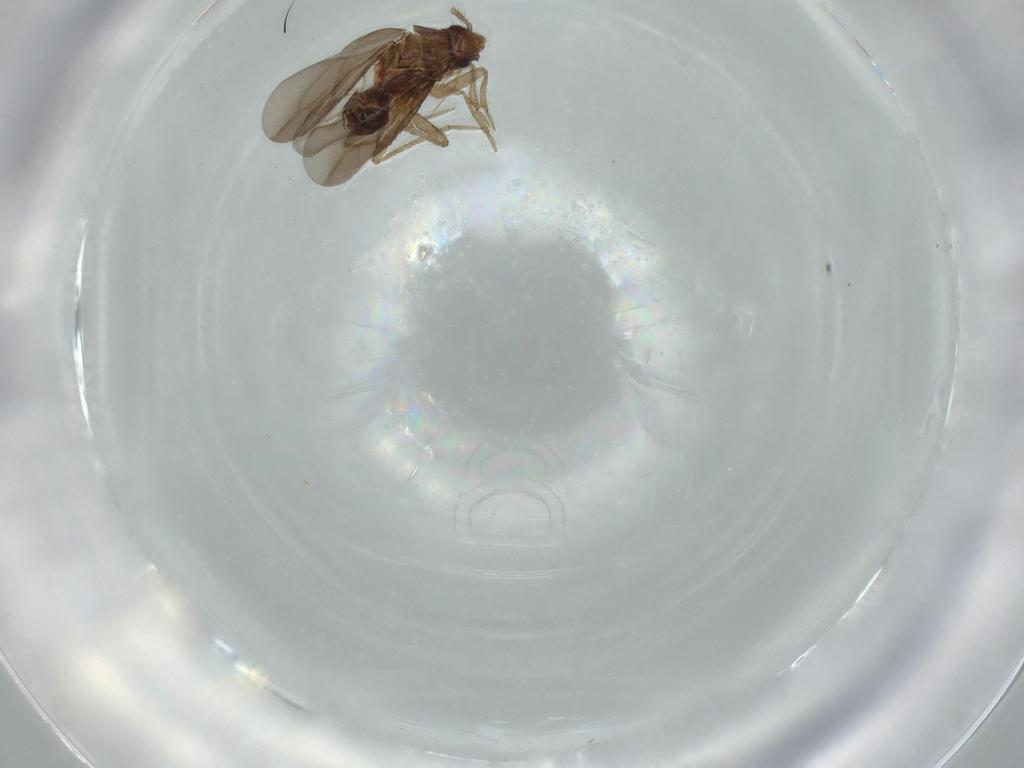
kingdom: Animalia
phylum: Arthropoda
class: Insecta
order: Hemiptera
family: Ceratocombidae
